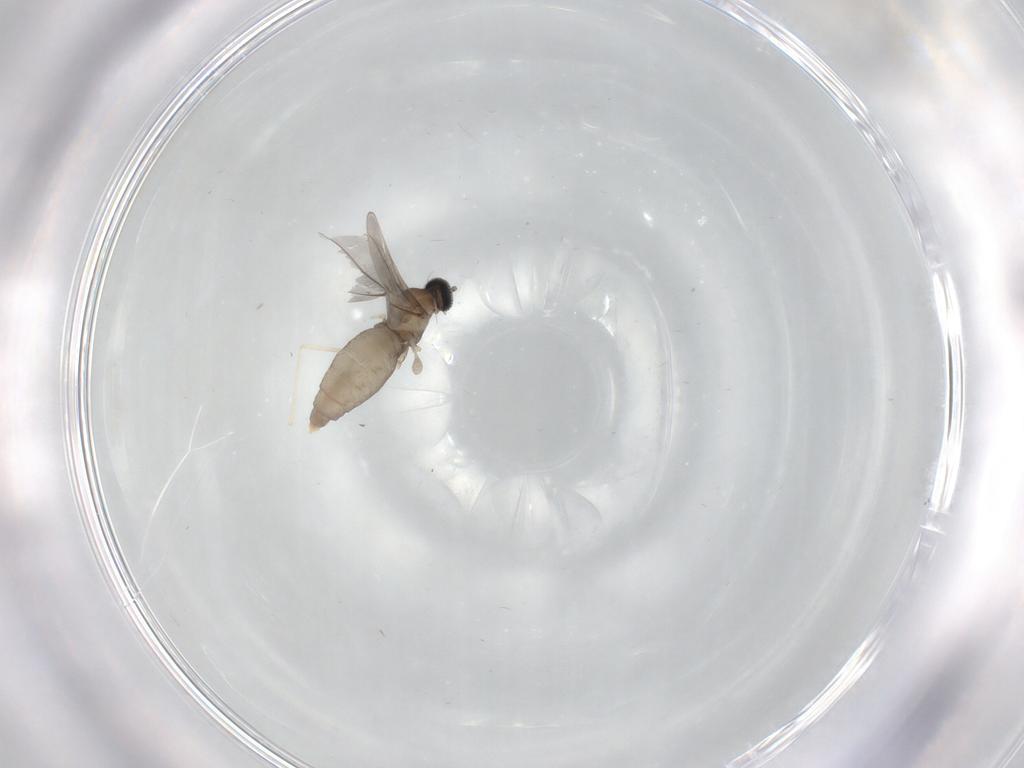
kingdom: Animalia
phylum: Arthropoda
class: Insecta
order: Diptera
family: Cecidomyiidae
